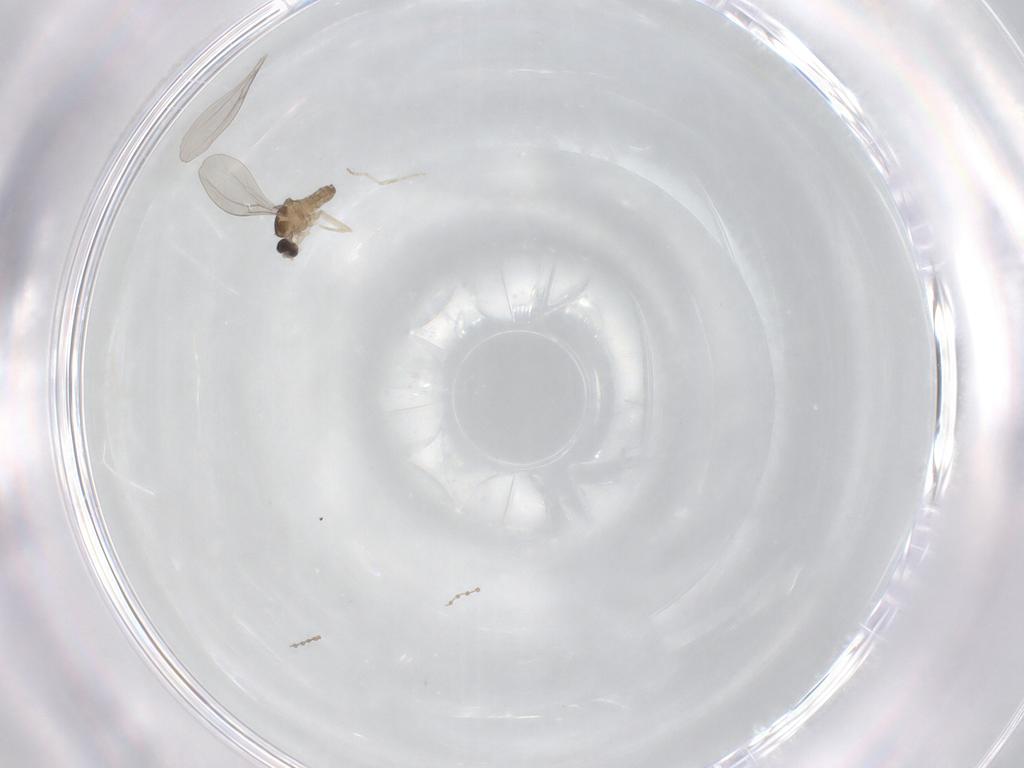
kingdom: Animalia
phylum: Arthropoda
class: Insecta
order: Diptera
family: Cecidomyiidae
